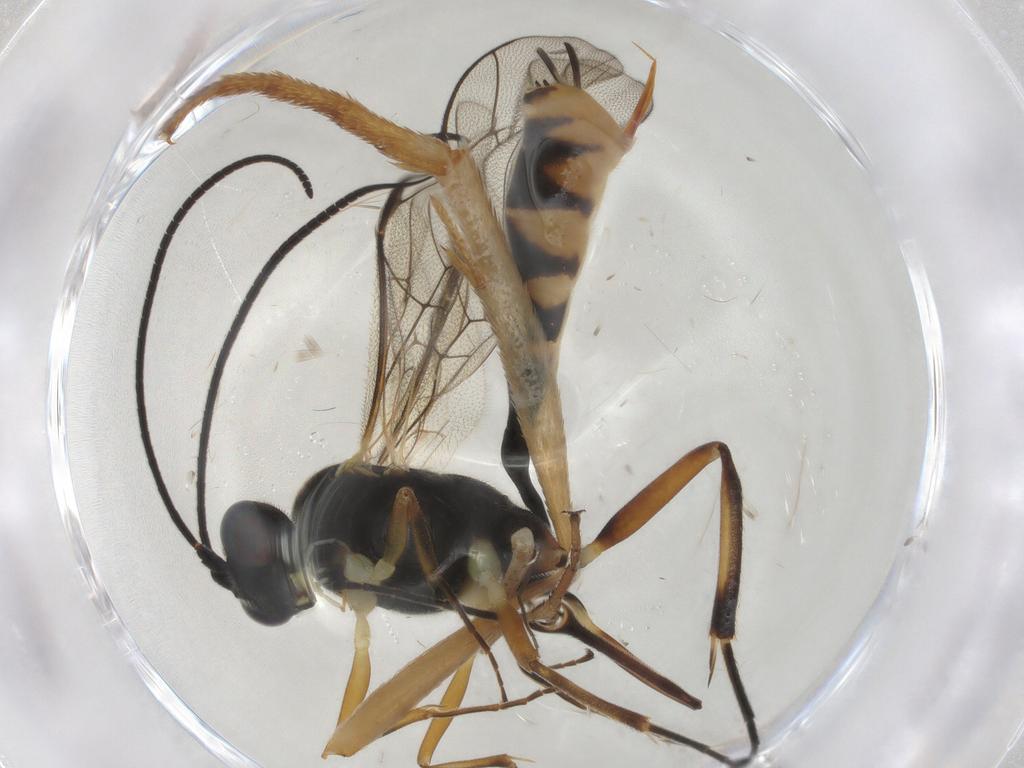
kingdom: Animalia
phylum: Arthropoda
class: Insecta
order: Hymenoptera
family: Ichneumonidae
